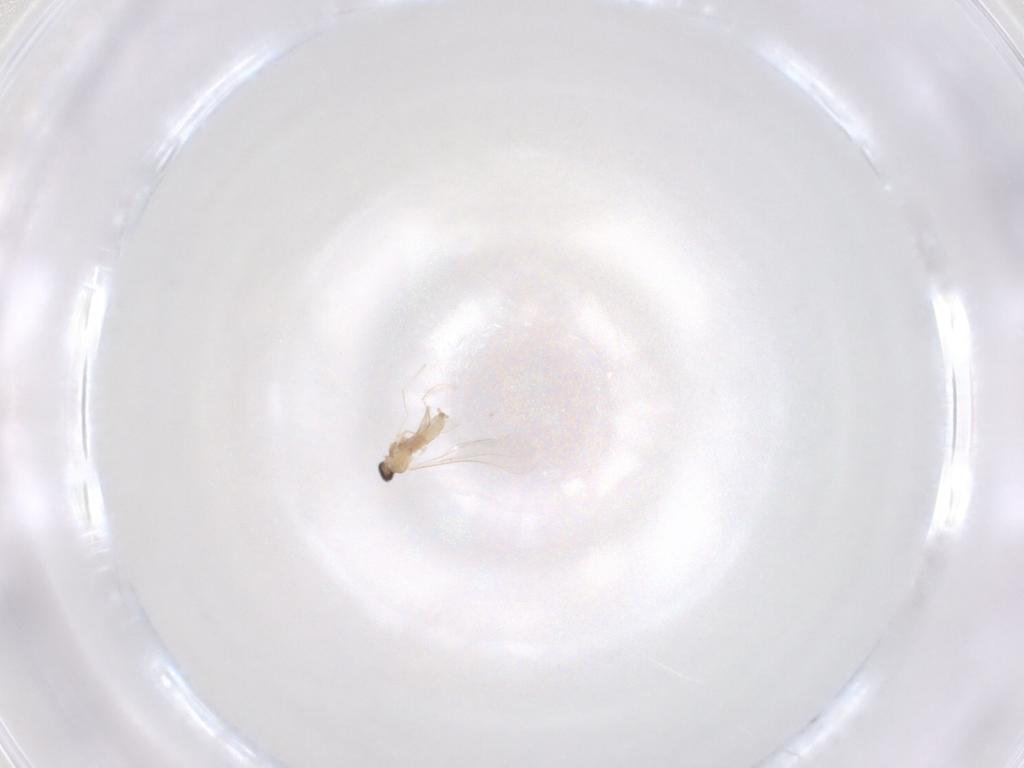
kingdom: Animalia
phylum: Arthropoda
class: Insecta
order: Diptera
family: Cecidomyiidae
